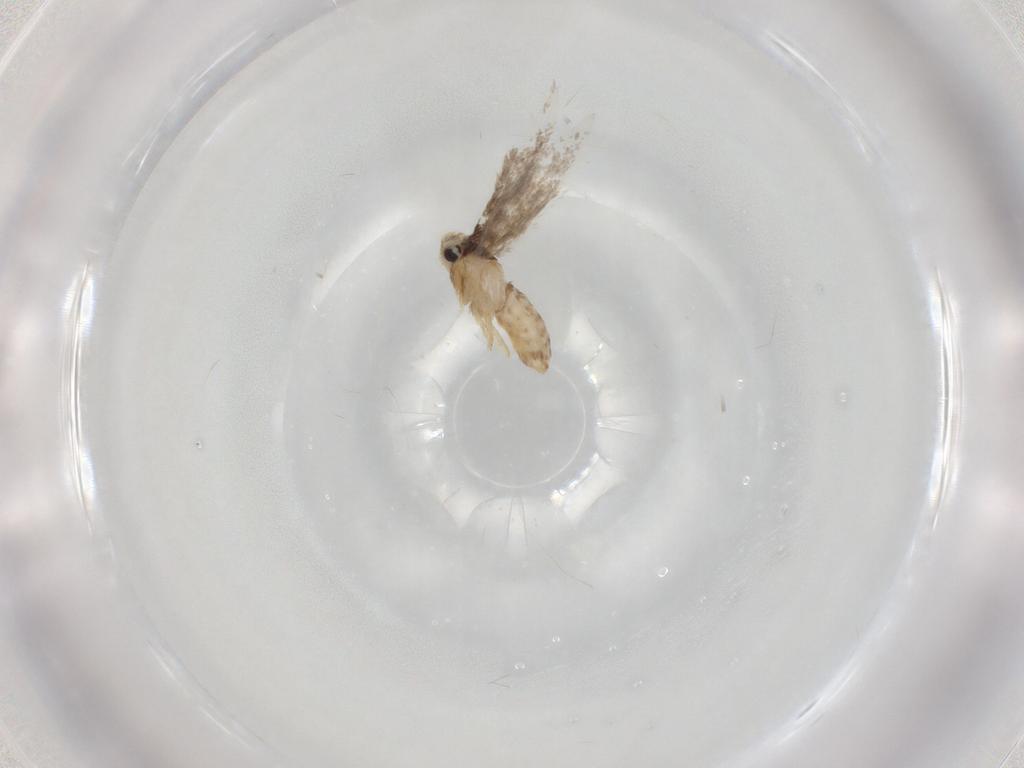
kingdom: Animalia
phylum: Arthropoda
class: Insecta
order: Lepidoptera
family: Nepticulidae
